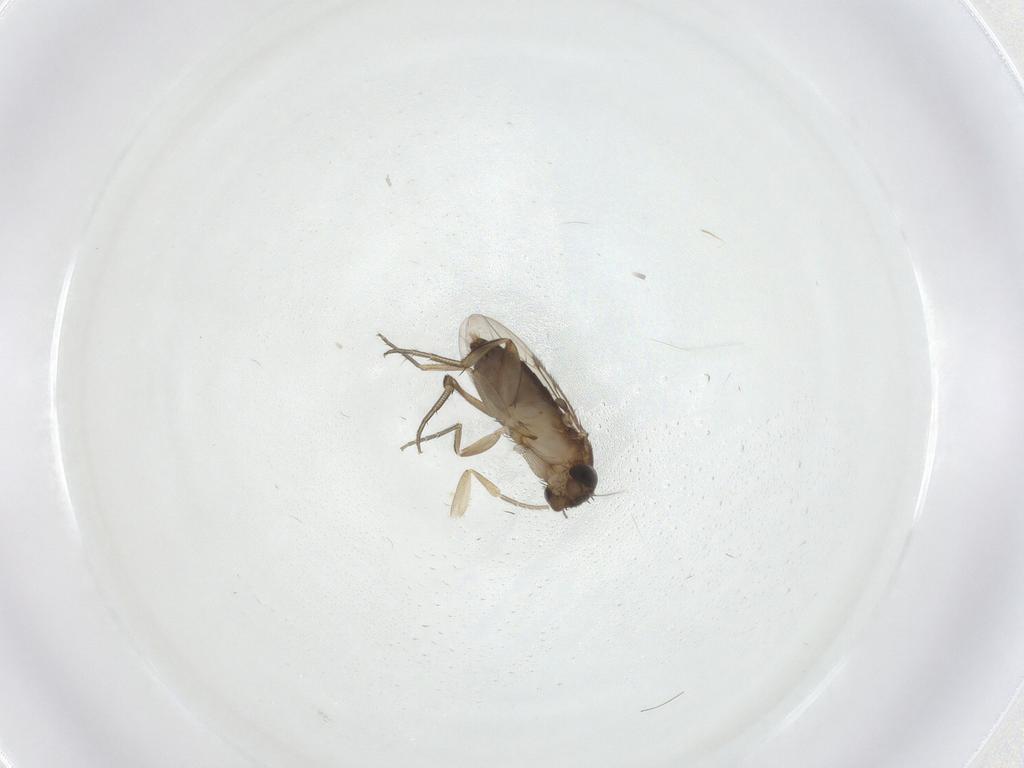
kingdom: Animalia
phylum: Arthropoda
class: Insecta
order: Diptera
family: Phoridae
